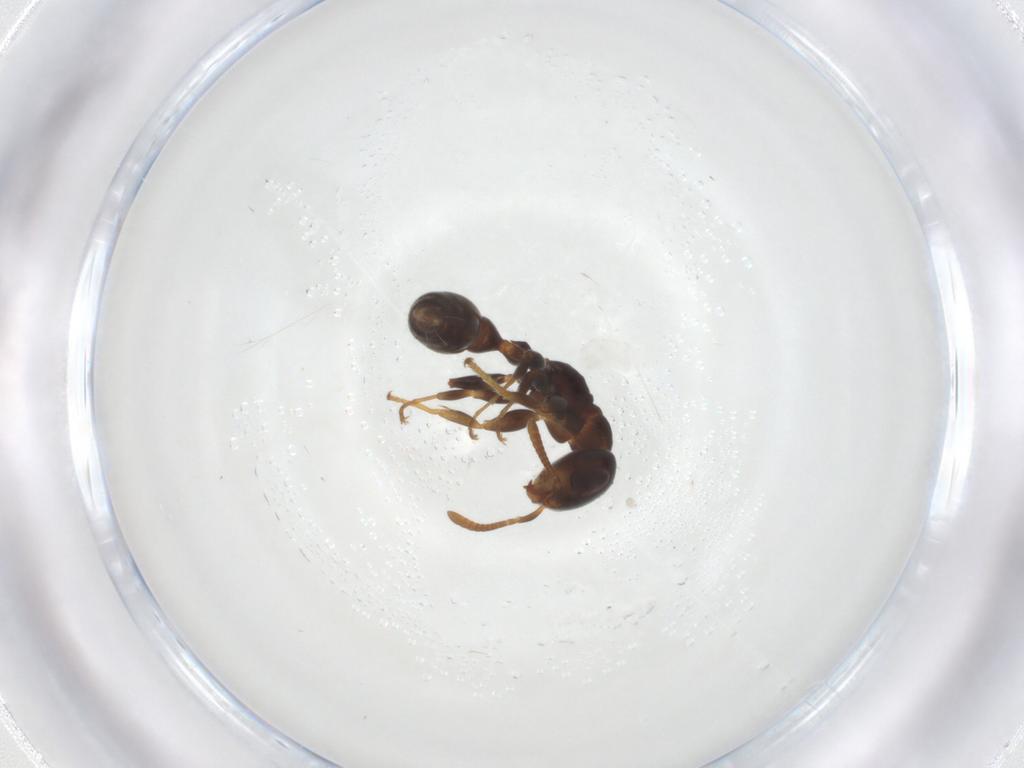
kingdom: Animalia
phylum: Arthropoda
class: Insecta
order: Hymenoptera
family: Formicidae
